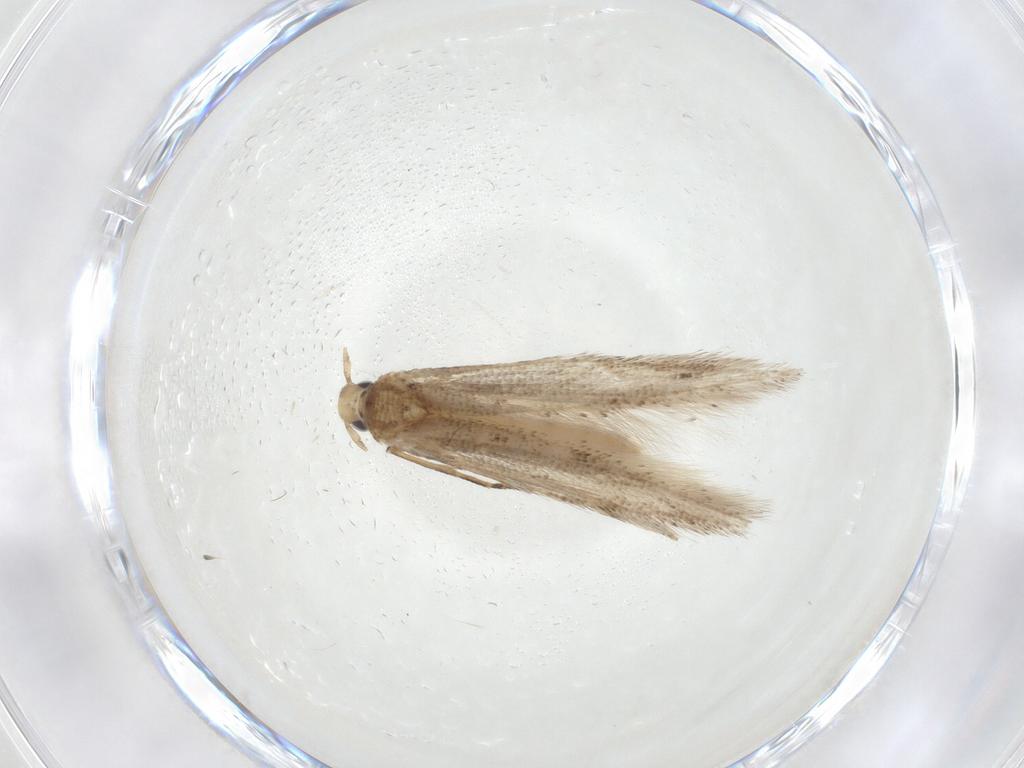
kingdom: Animalia
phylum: Arthropoda
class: Insecta
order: Lepidoptera
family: Gracillariidae
